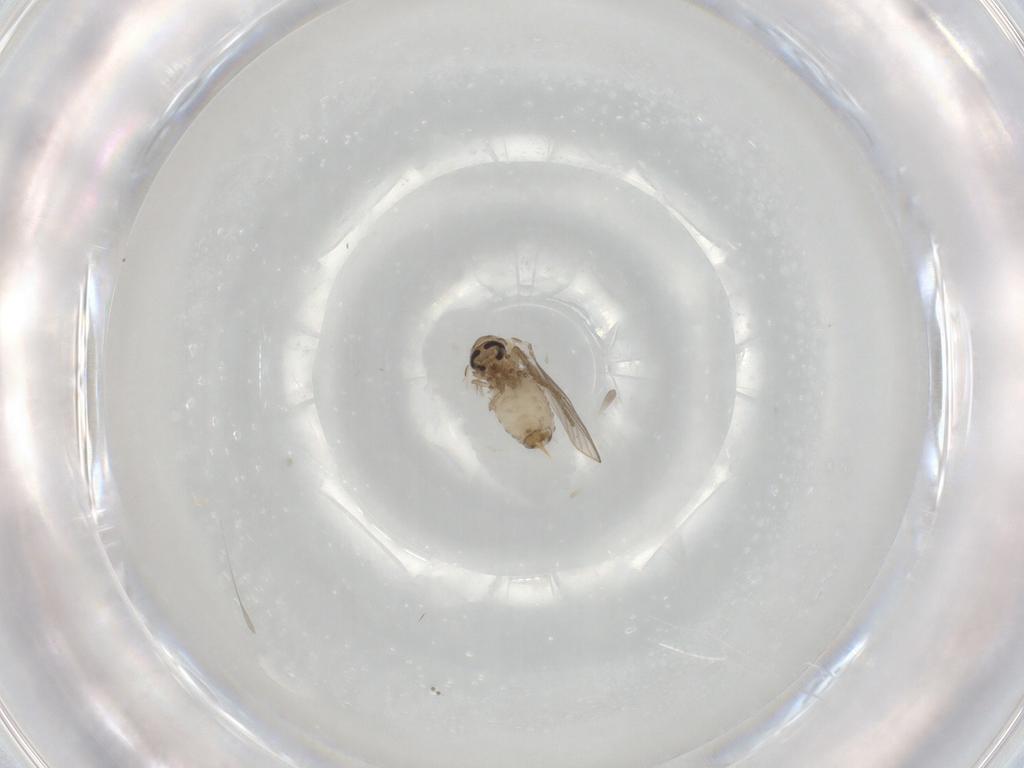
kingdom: Animalia
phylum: Arthropoda
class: Insecta
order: Diptera
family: Psychodidae
